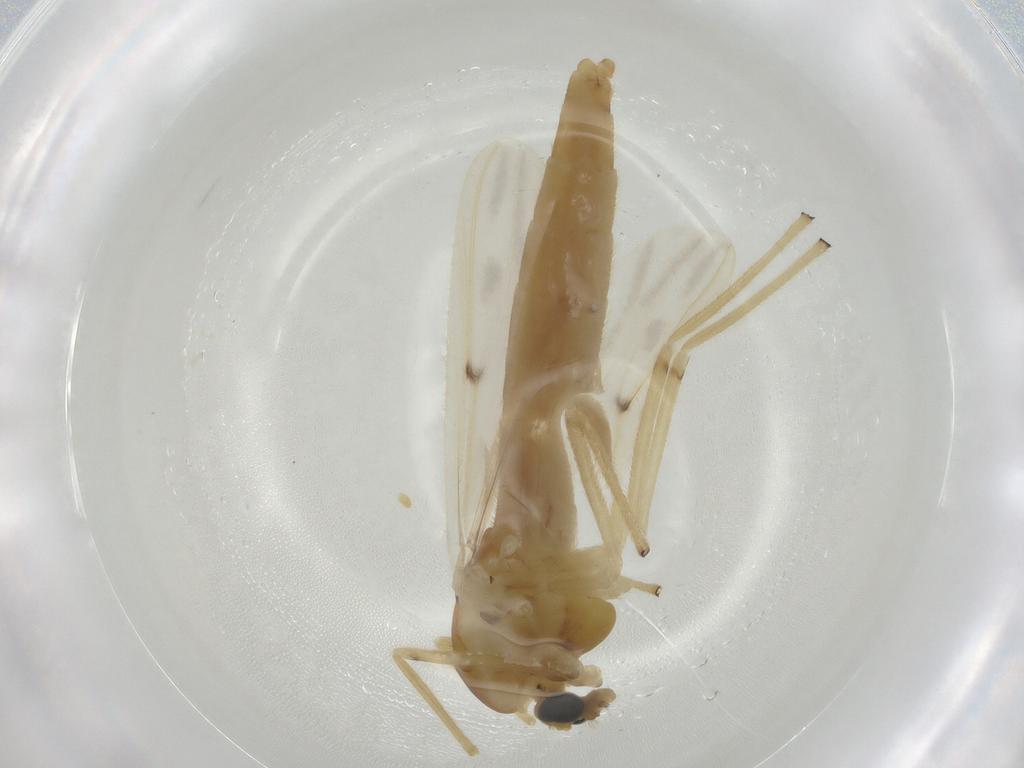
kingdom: Animalia
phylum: Arthropoda
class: Insecta
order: Diptera
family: Chironomidae
